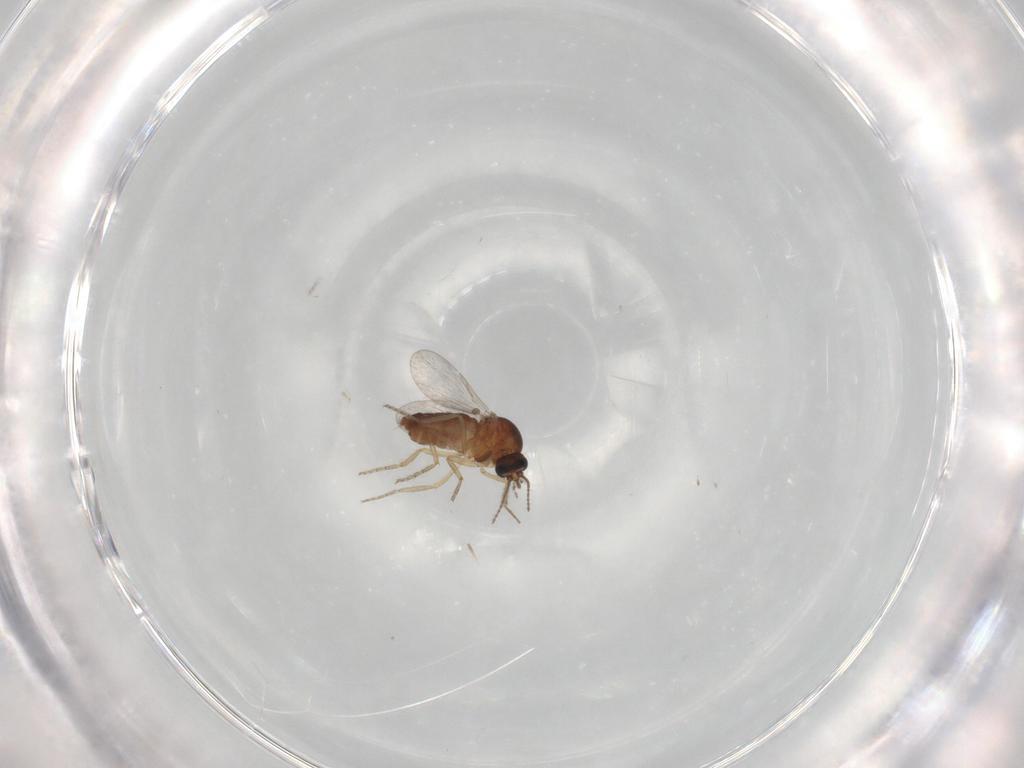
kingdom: Animalia
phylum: Arthropoda
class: Insecta
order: Diptera
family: Ceratopogonidae
